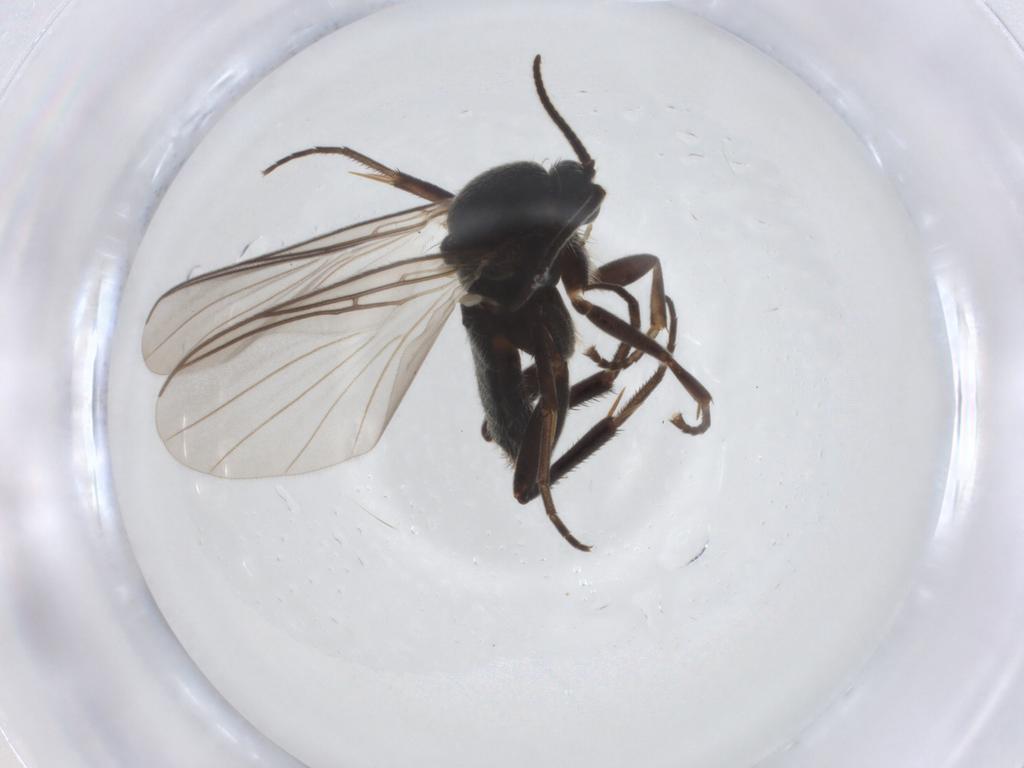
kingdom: Animalia
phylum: Arthropoda
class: Insecta
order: Diptera
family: Mycetophilidae
